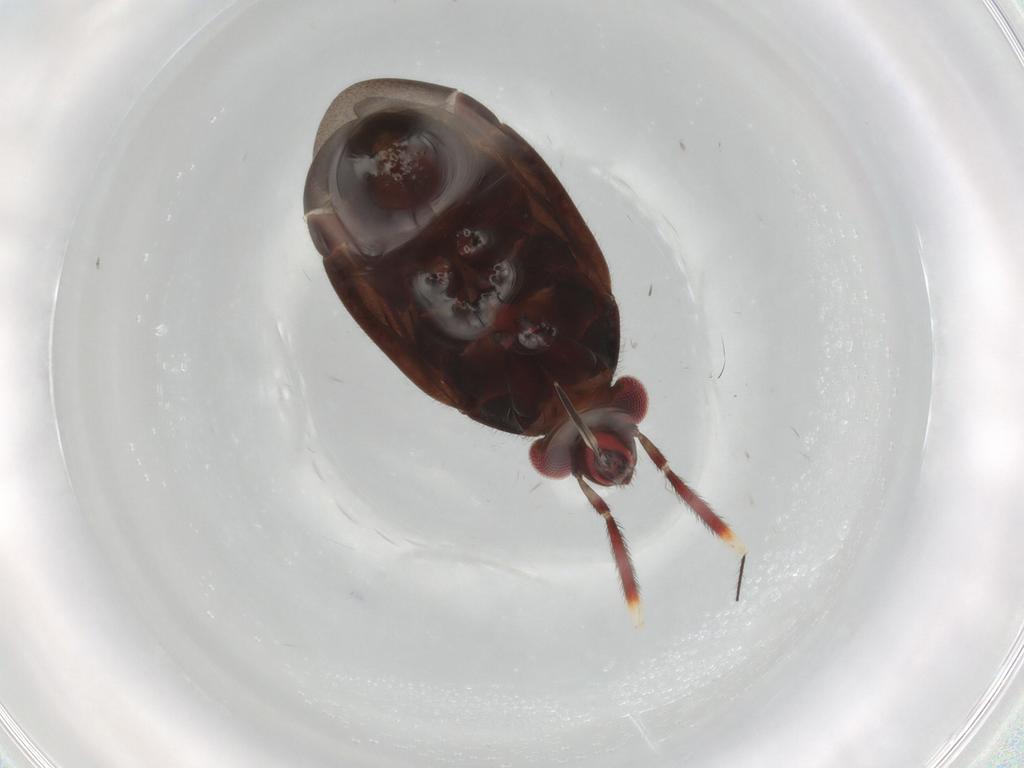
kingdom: Animalia
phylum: Arthropoda
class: Insecta
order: Hemiptera
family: Miridae
